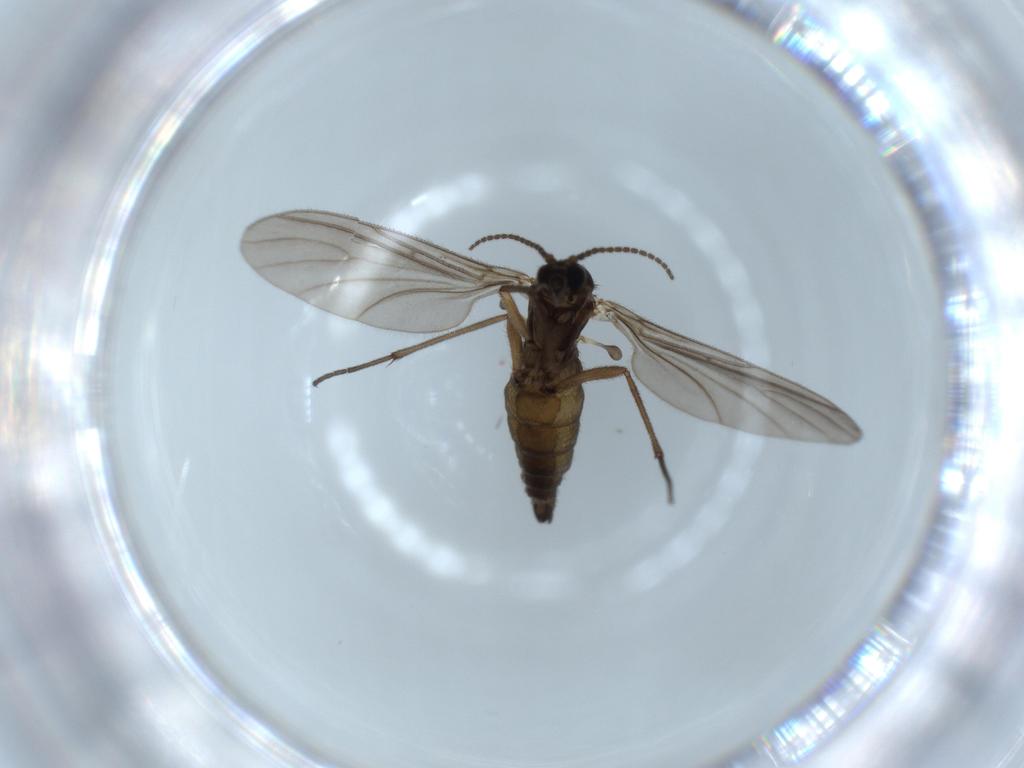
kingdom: Animalia
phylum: Arthropoda
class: Insecta
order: Diptera
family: Sciaridae
